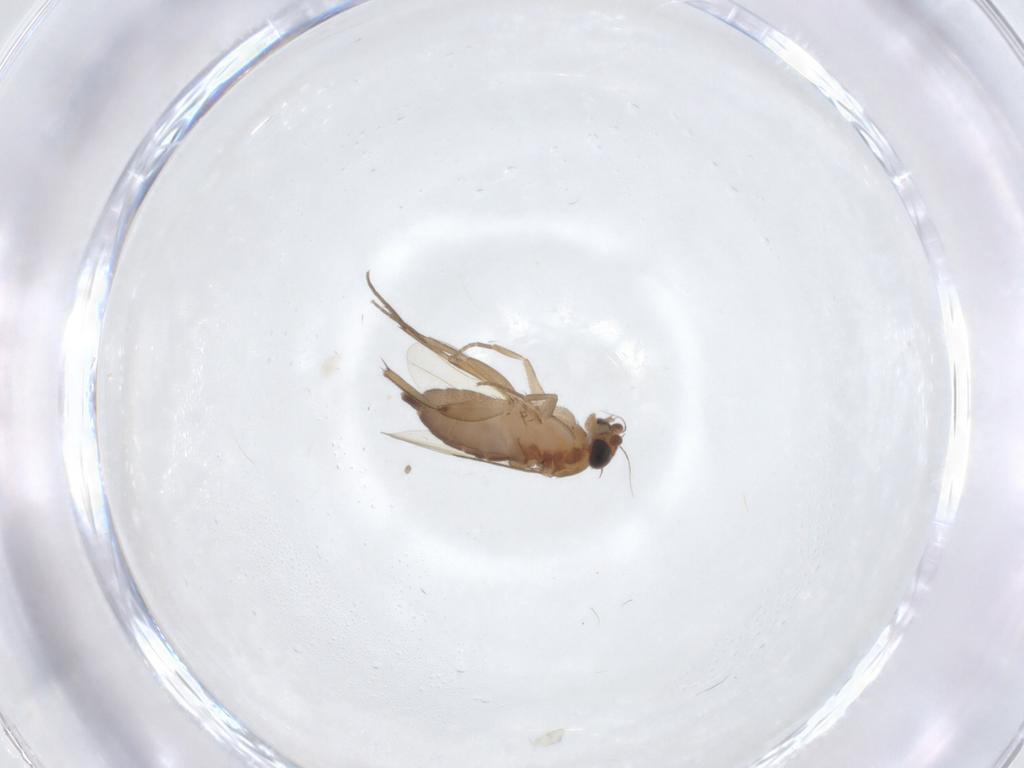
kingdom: Animalia
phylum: Arthropoda
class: Insecta
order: Diptera
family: Phoridae
